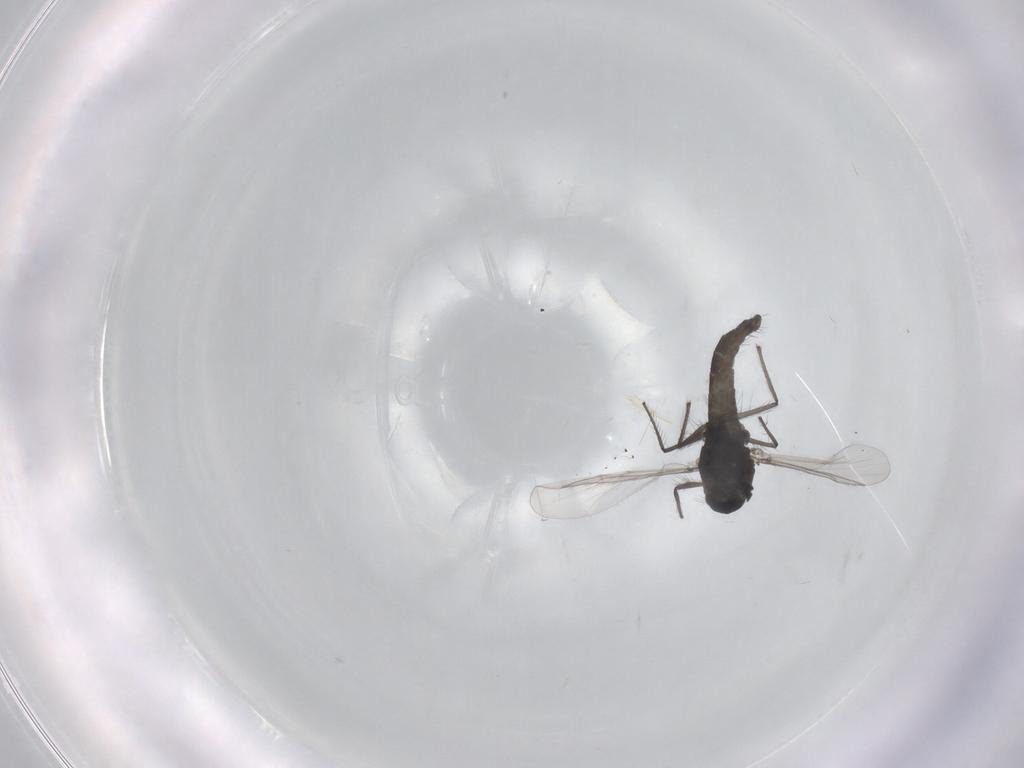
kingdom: Animalia
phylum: Arthropoda
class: Insecta
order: Diptera
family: Chironomidae
